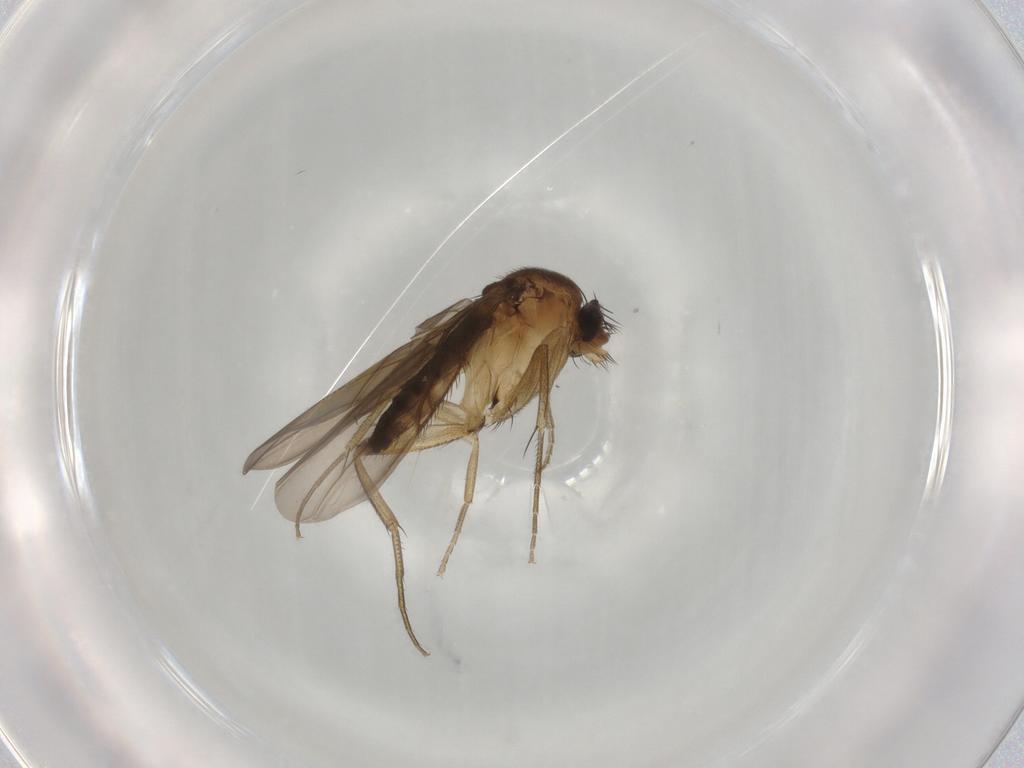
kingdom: Animalia
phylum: Arthropoda
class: Insecta
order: Diptera
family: Phoridae
